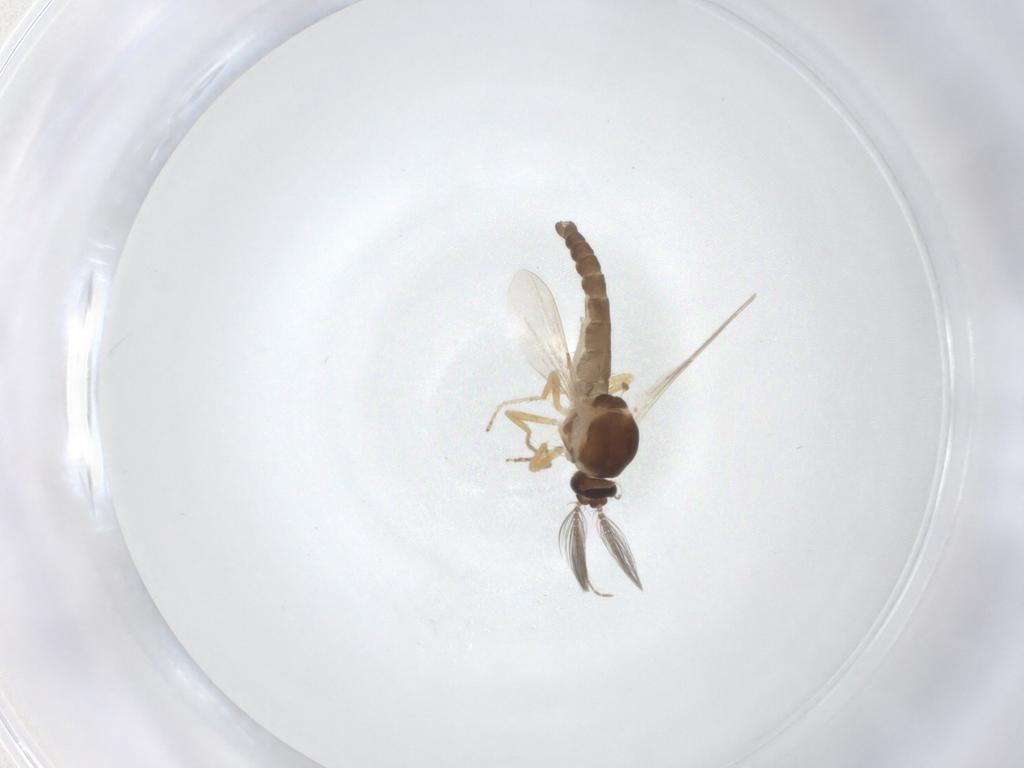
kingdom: Animalia
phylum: Arthropoda
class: Insecta
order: Diptera
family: Ceratopogonidae
